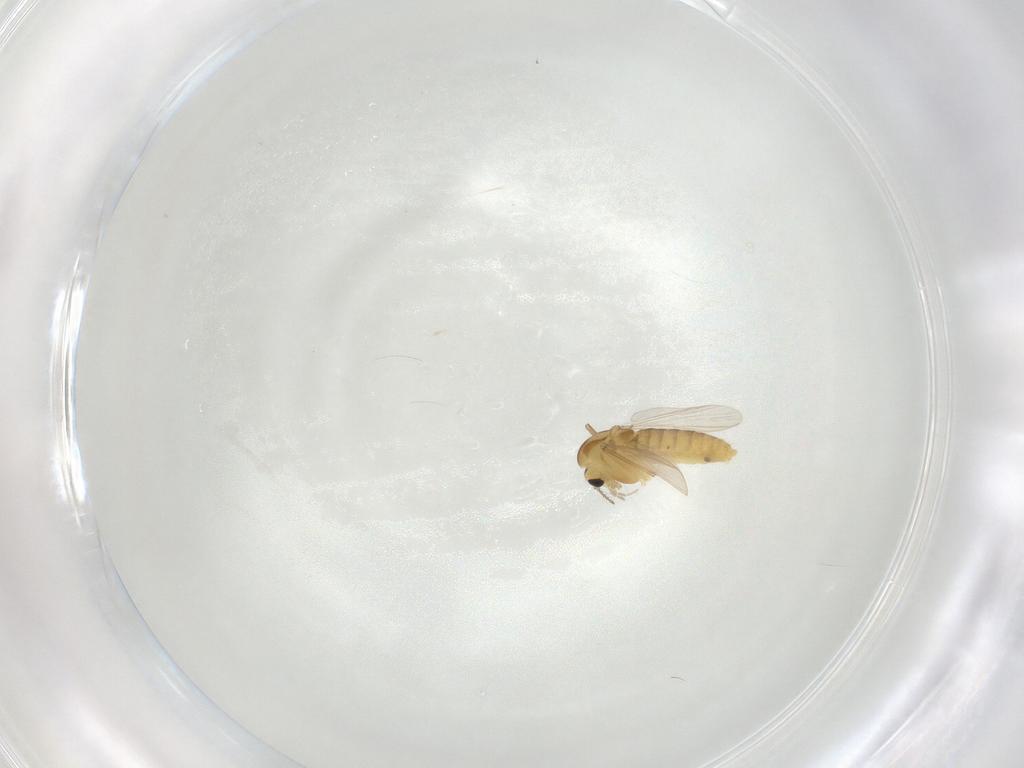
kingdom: Animalia
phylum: Arthropoda
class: Insecta
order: Diptera
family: Chironomidae
